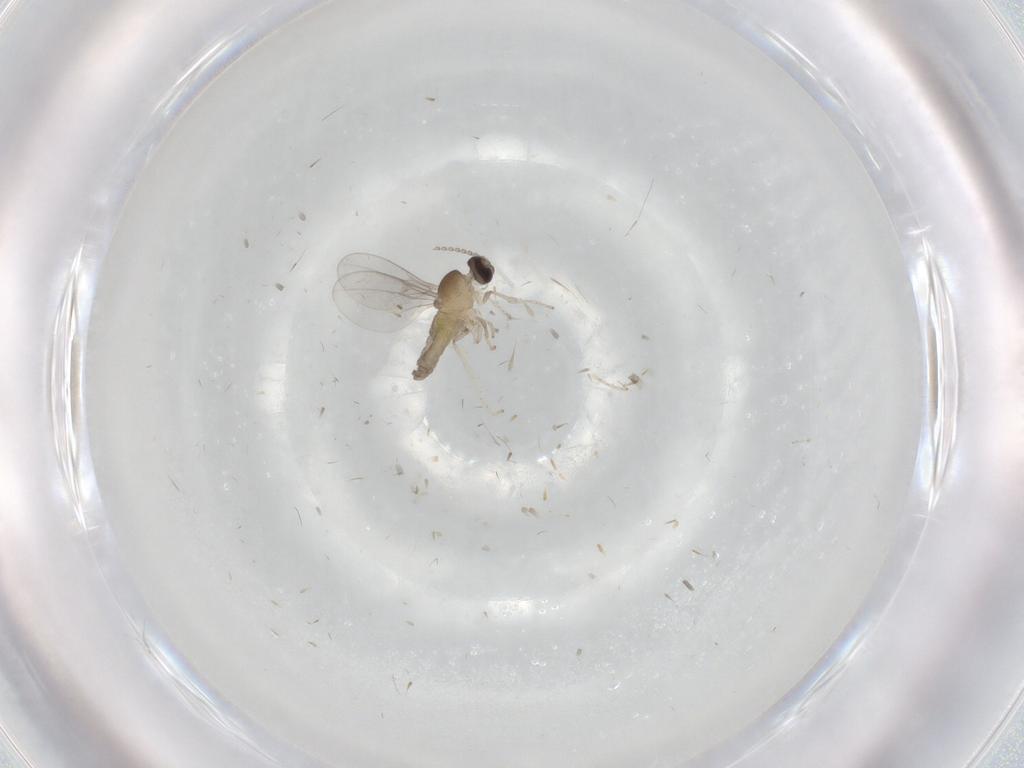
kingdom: Animalia
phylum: Arthropoda
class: Insecta
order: Diptera
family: Cecidomyiidae
